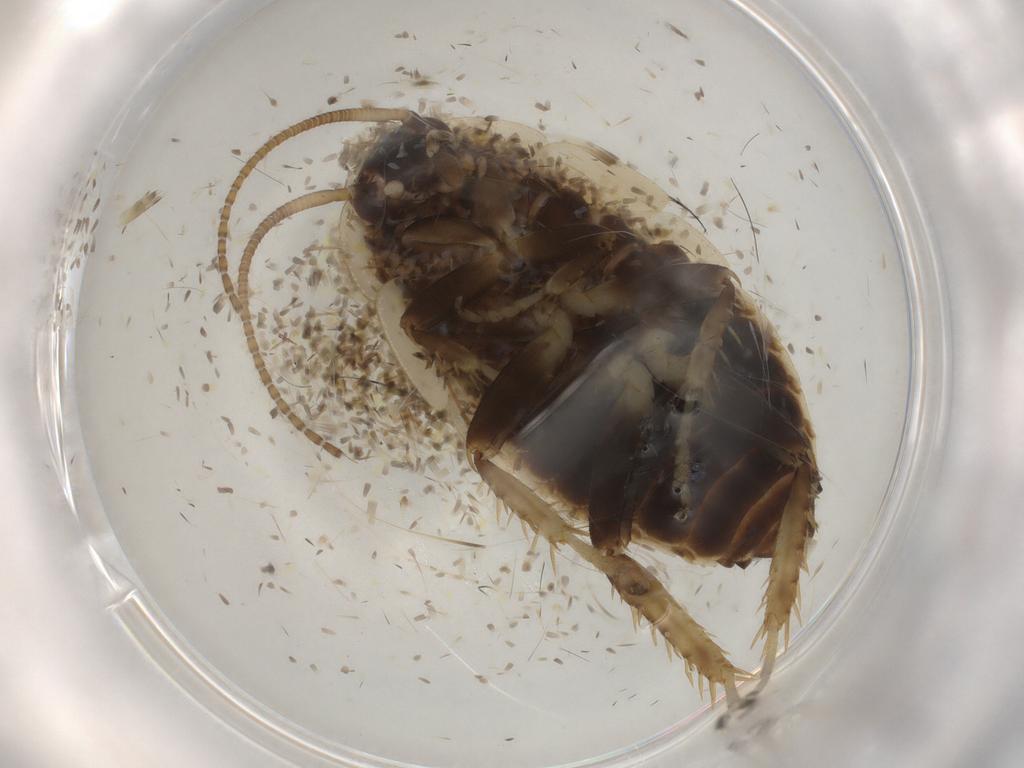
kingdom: Animalia
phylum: Arthropoda
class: Insecta
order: Blattodea
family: Ectobiidae
